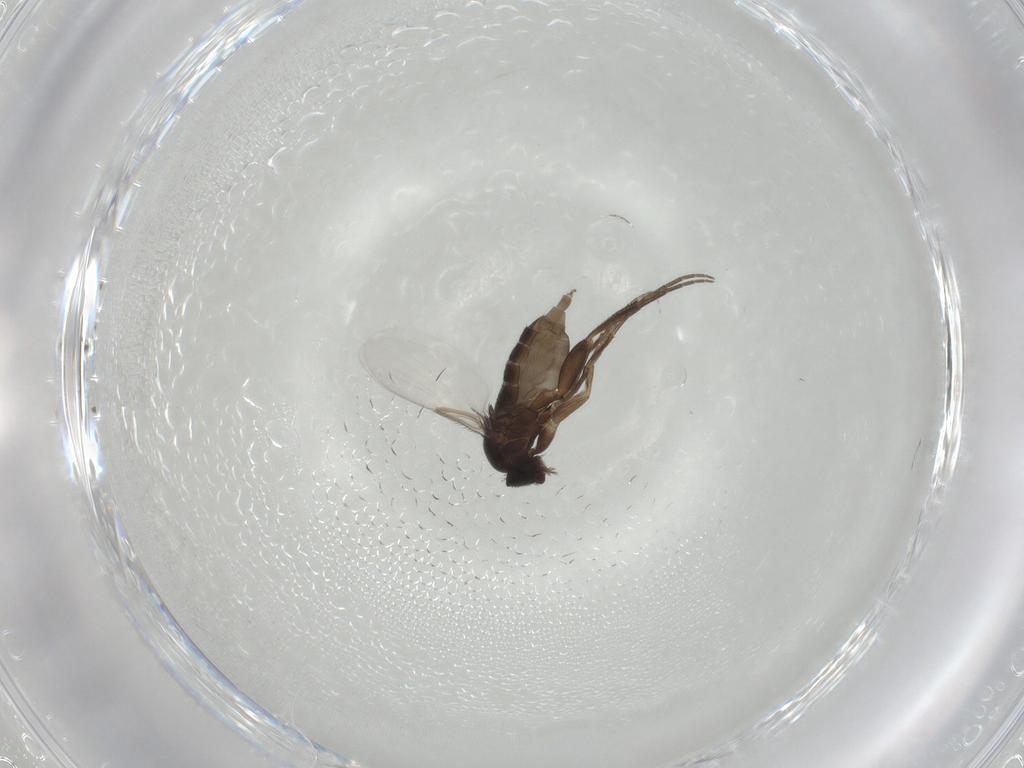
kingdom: Animalia
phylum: Arthropoda
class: Insecta
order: Diptera
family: Phoridae
